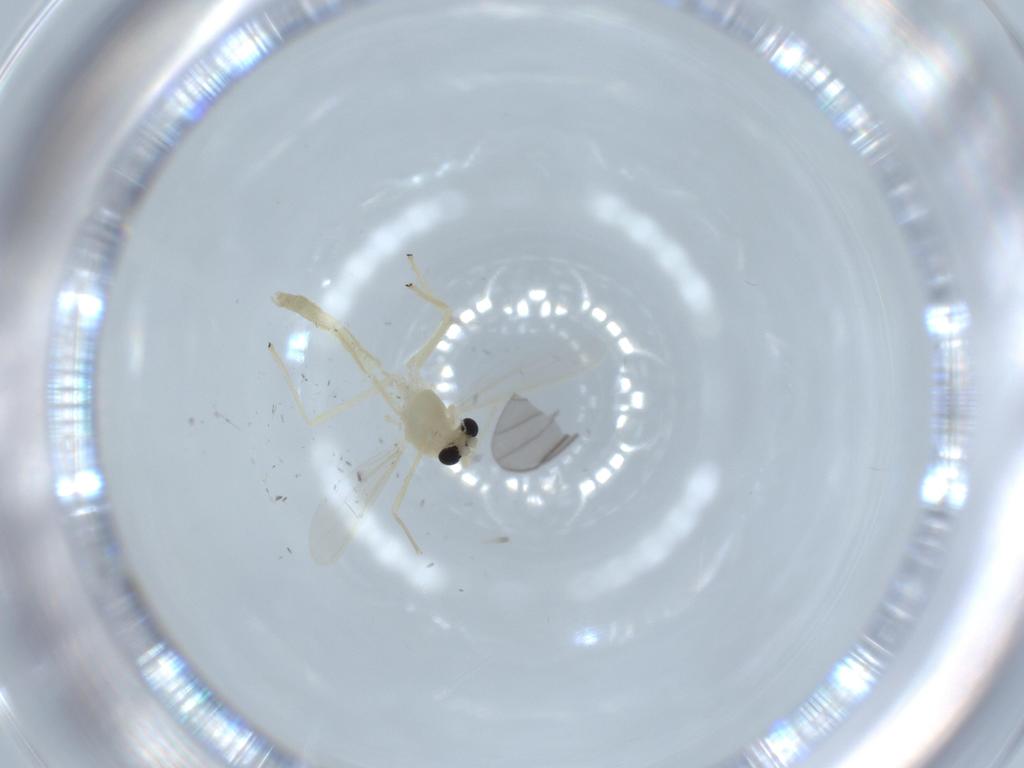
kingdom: Animalia
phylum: Arthropoda
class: Insecta
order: Diptera
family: Chironomidae
